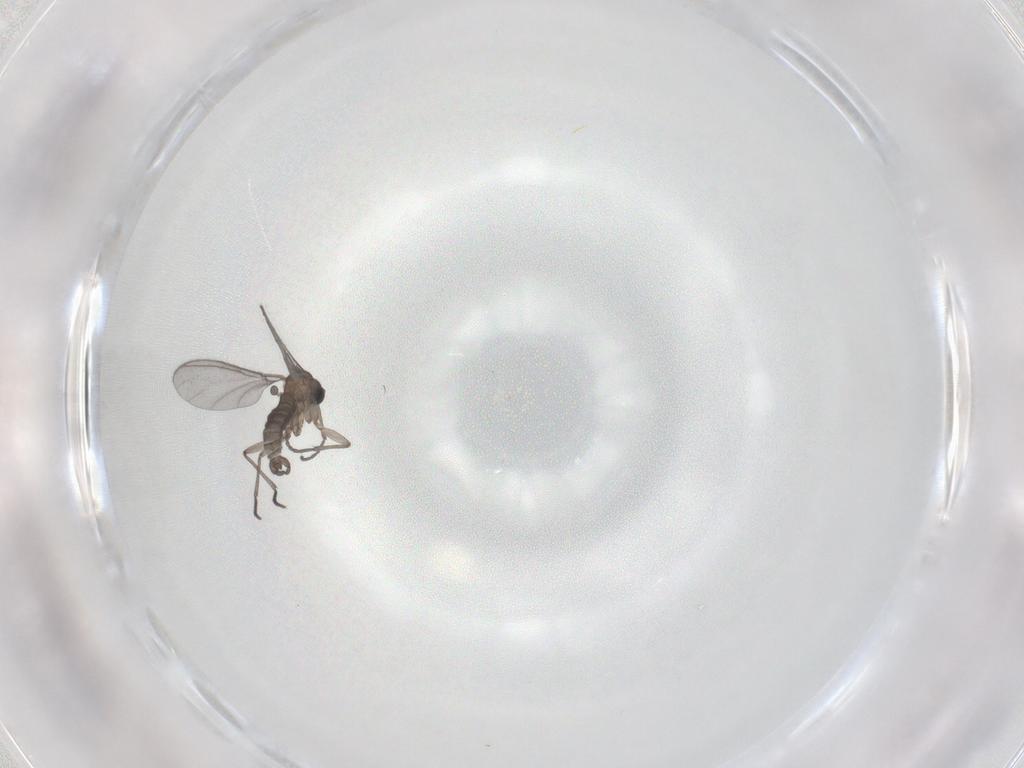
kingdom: Animalia
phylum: Arthropoda
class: Insecta
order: Diptera
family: Sciaridae
